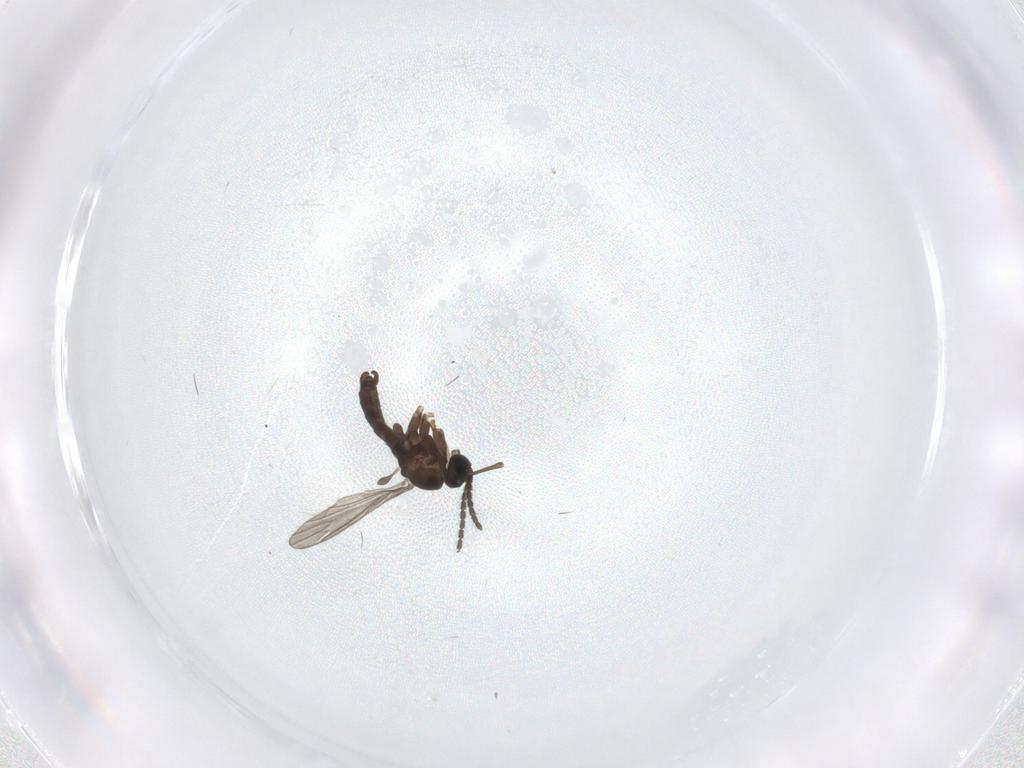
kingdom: Animalia
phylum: Arthropoda
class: Insecta
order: Diptera
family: Sciaridae
